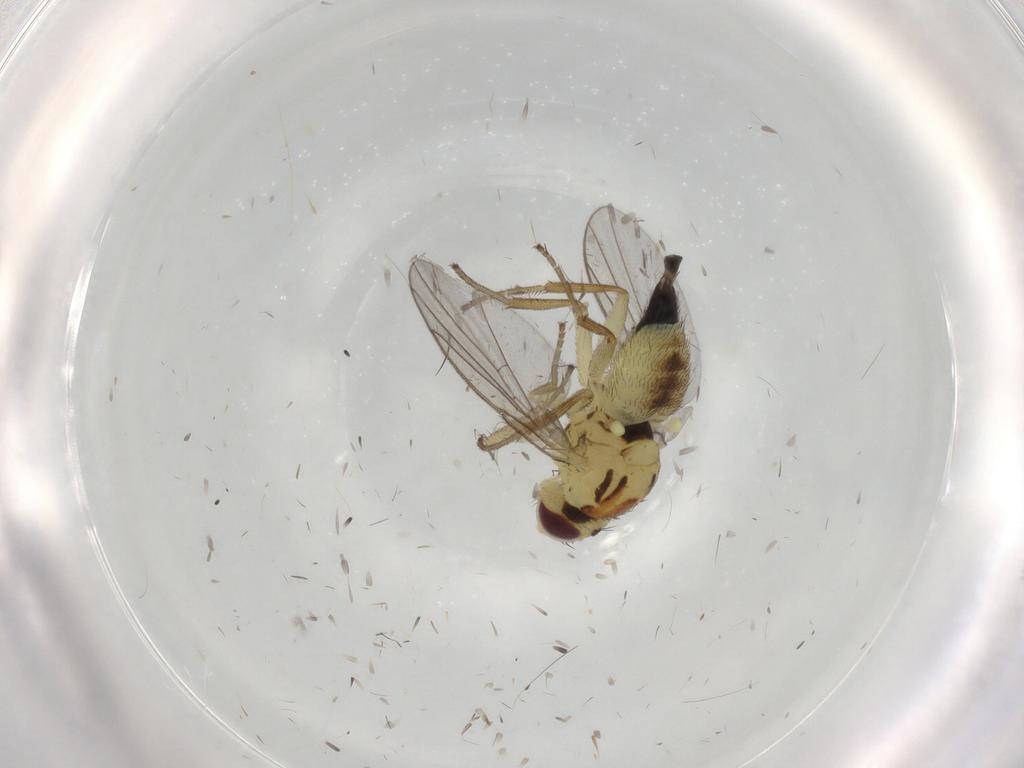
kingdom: Animalia
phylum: Arthropoda
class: Insecta
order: Diptera
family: Agromyzidae
